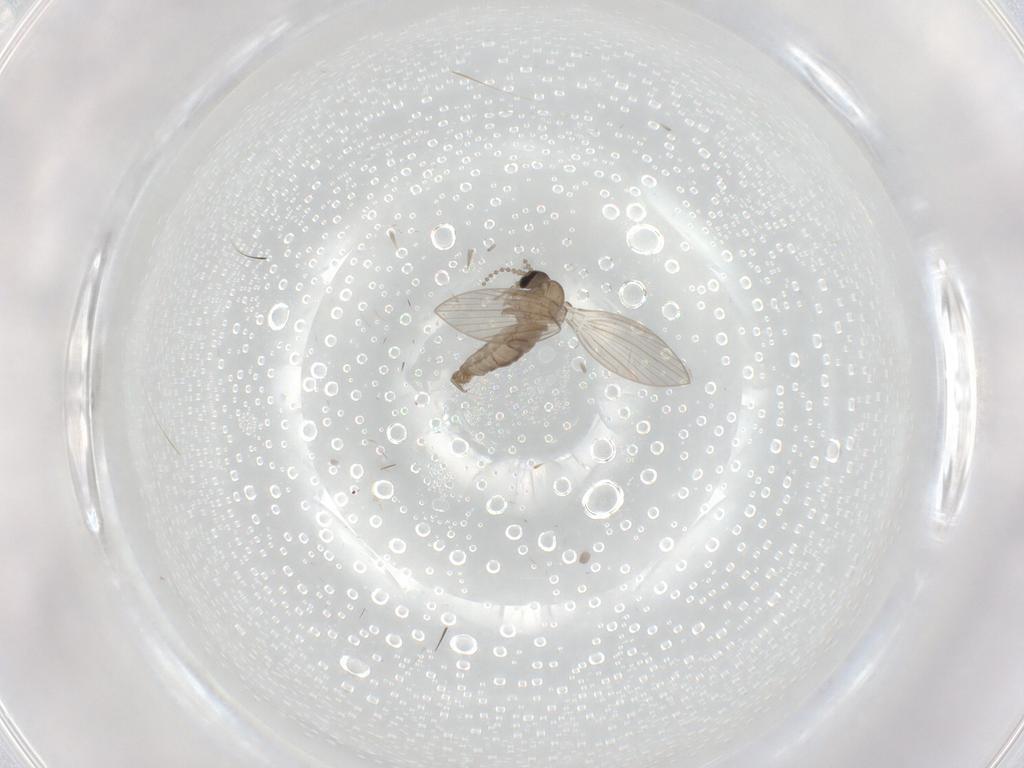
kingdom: Animalia
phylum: Arthropoda
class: Insecta
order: Diptera
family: Psychodidae
